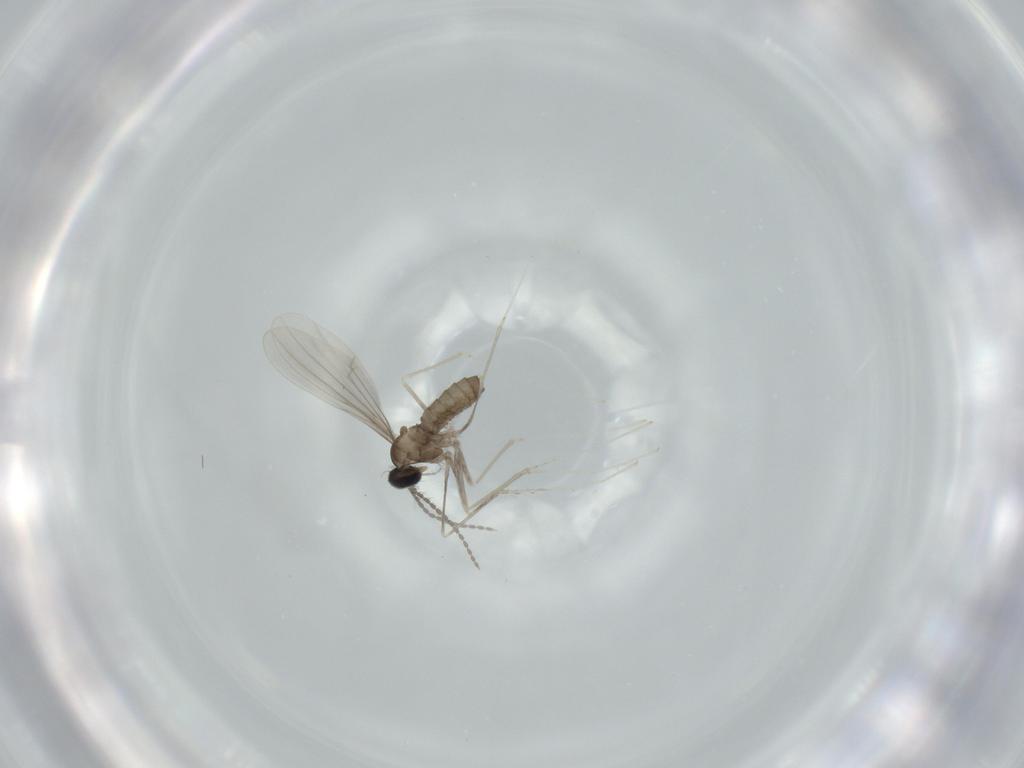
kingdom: Animalia
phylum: Arthropoda
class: Insecta
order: Diptera
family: Cecidomyiidae
